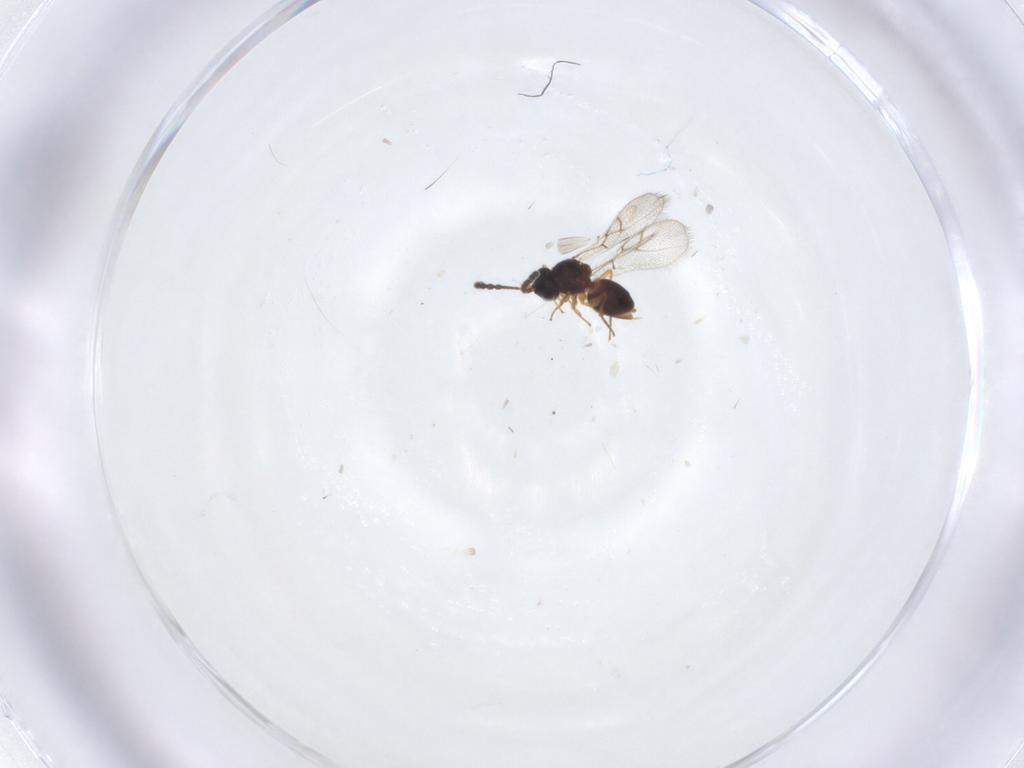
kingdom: Animalia
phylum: Arthropoda
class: Insecta
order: Hymenoptera
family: Figitidae
